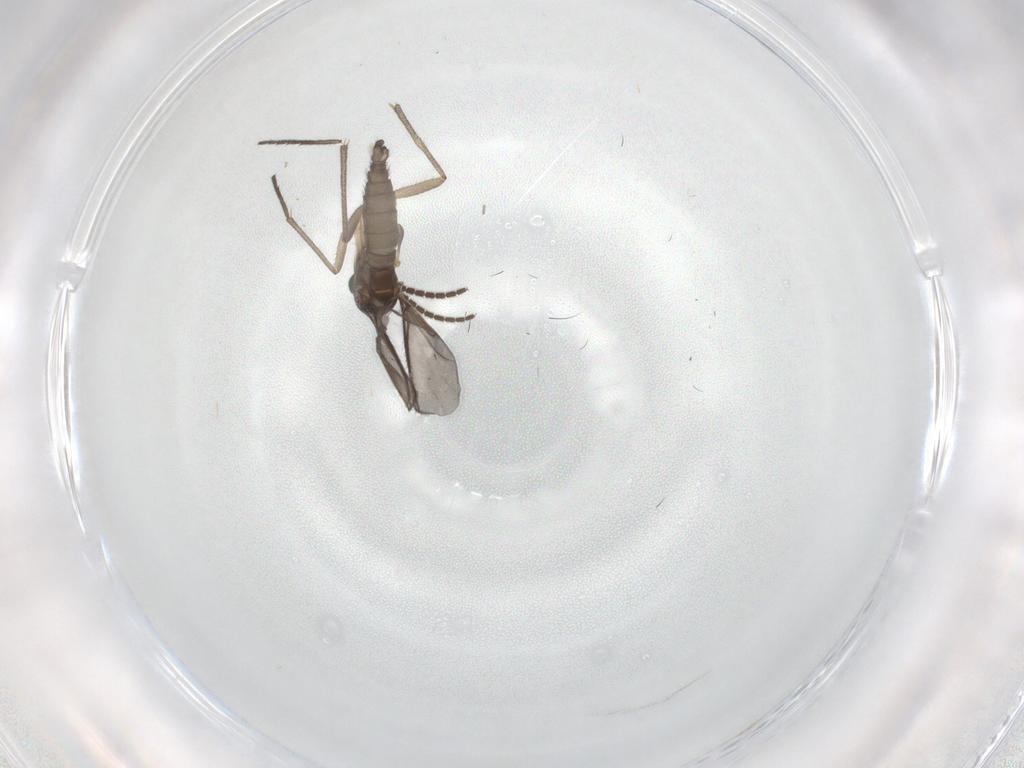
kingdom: Animalia
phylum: Arthropoda
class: Insecta
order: Diptera
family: Sciaridae
